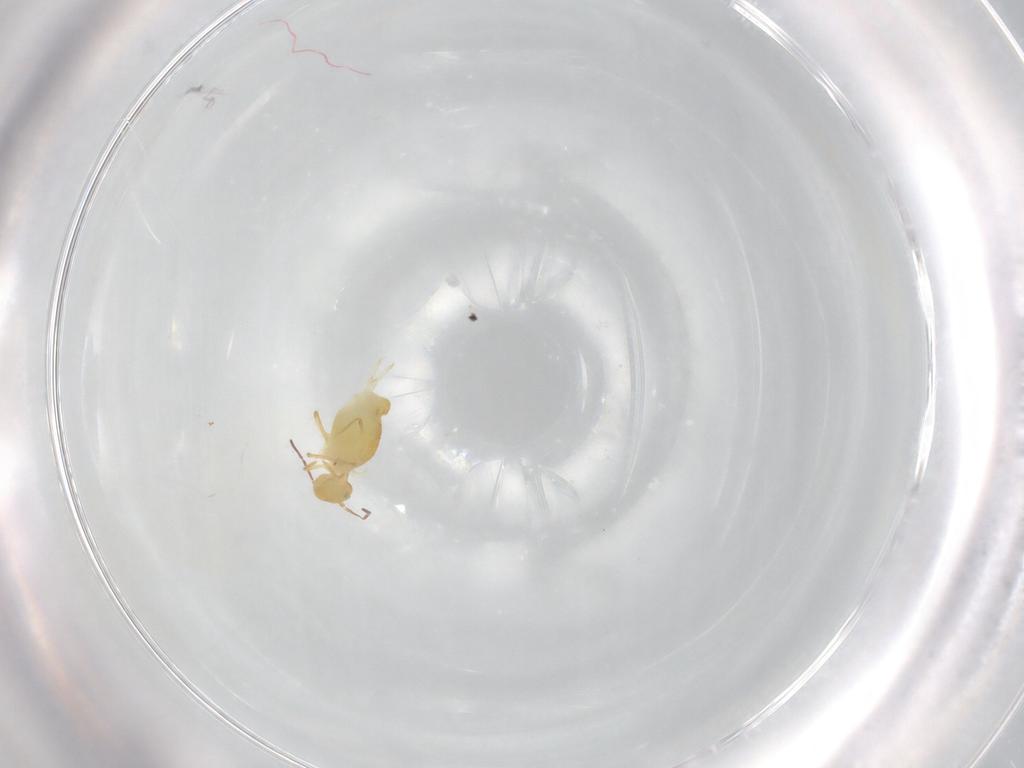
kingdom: Animalia
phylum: Arthropoda
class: Collembola
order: Symphypleona
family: Bourletiellidae
